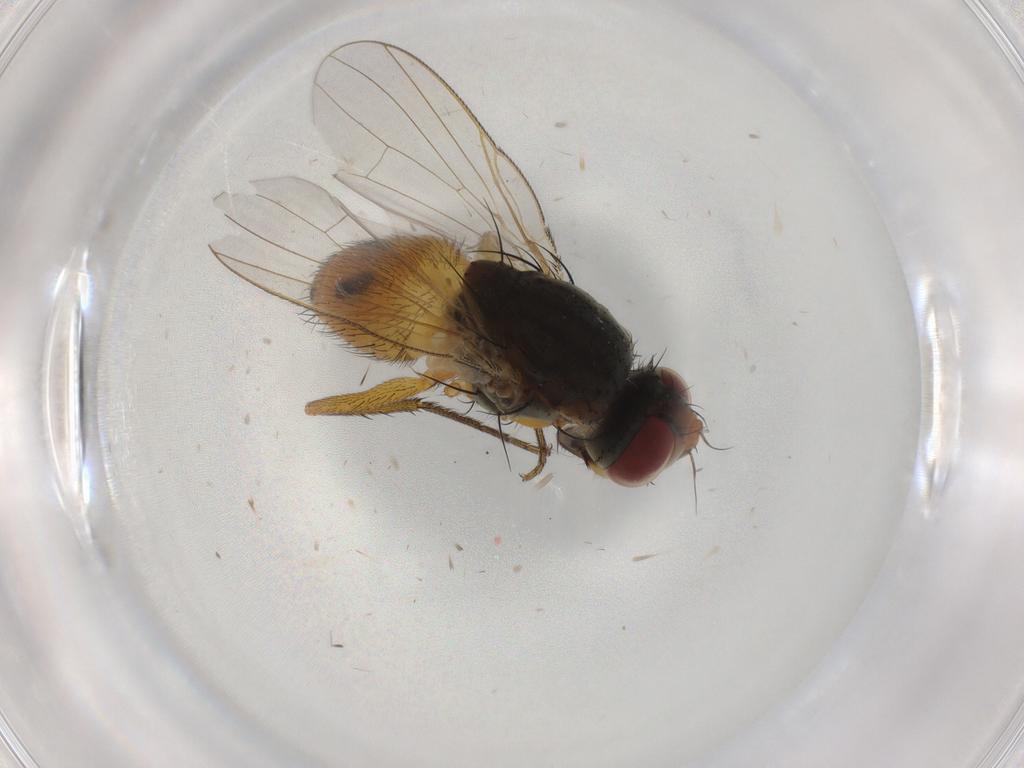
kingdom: Animalia
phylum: Arthropoda
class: Insecta
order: Diptera
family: Muscidae
